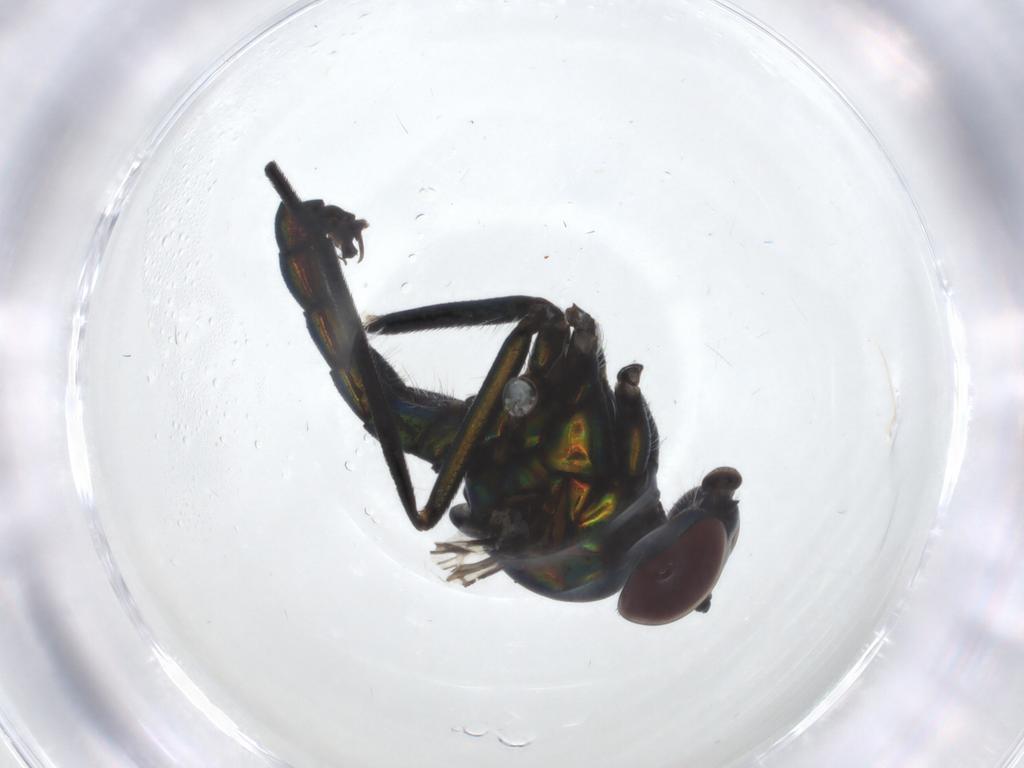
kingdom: Animalia
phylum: Arthropoda
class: Insecta
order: Diptera
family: Dolichopodidae
